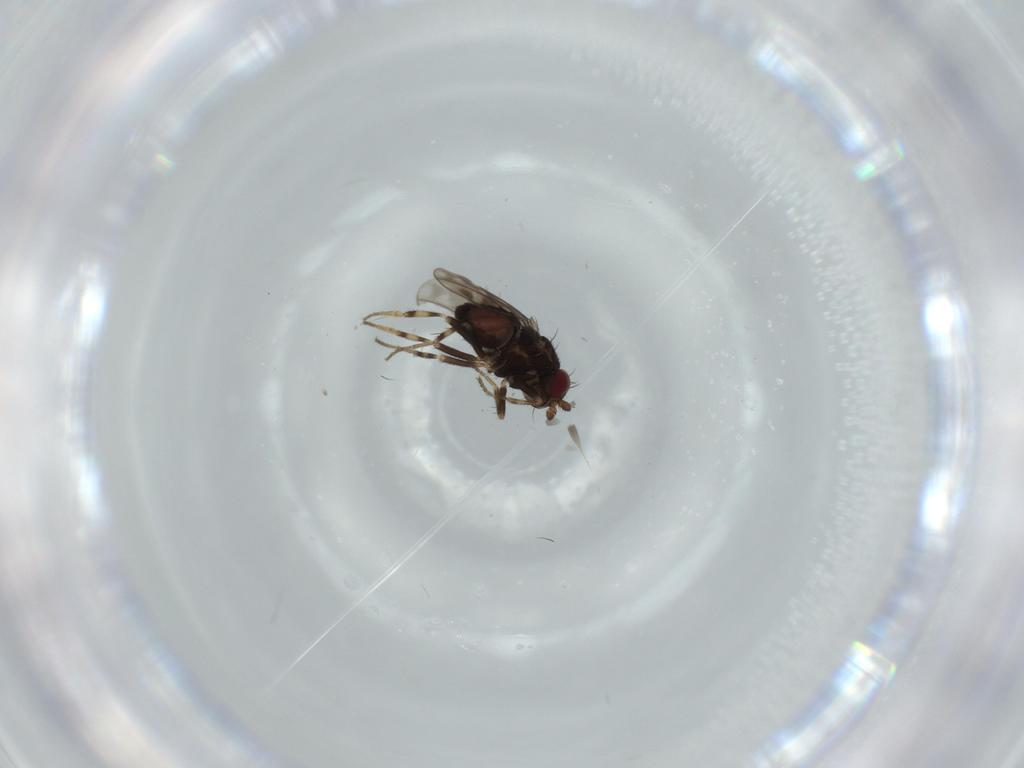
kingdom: Animalia
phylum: Arthropoda
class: Insecta
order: Diptera
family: Sphaeroceridae
